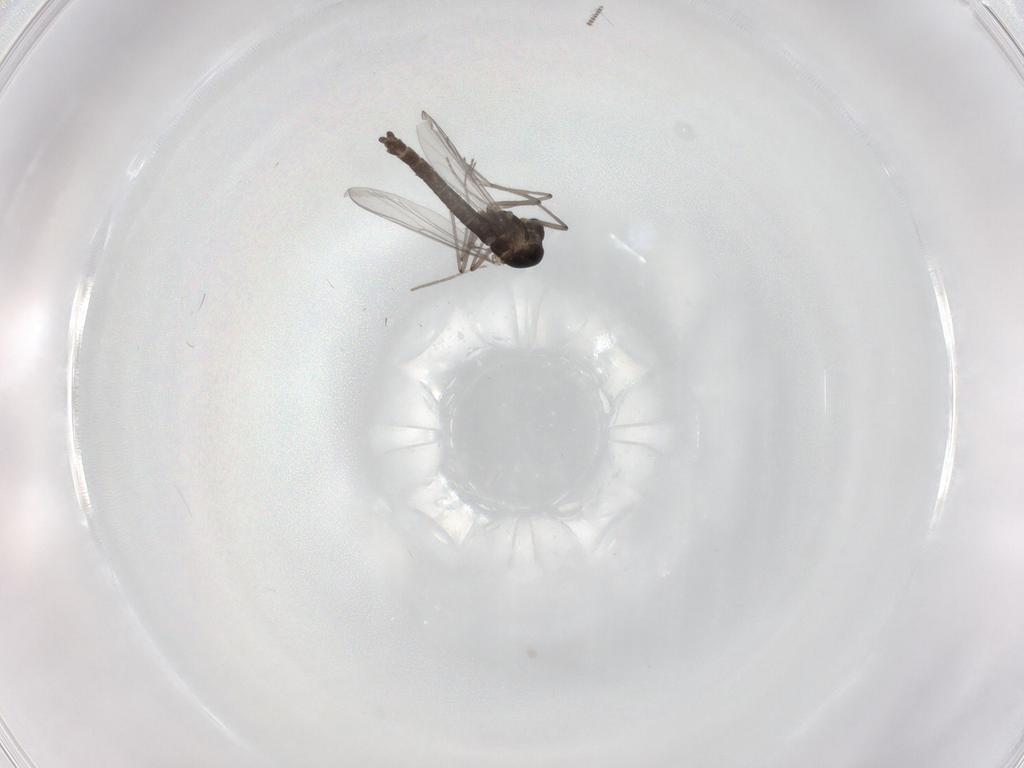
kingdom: Animalia
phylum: Arthropoda
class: Insecta
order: Diptera
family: Chironomidae
